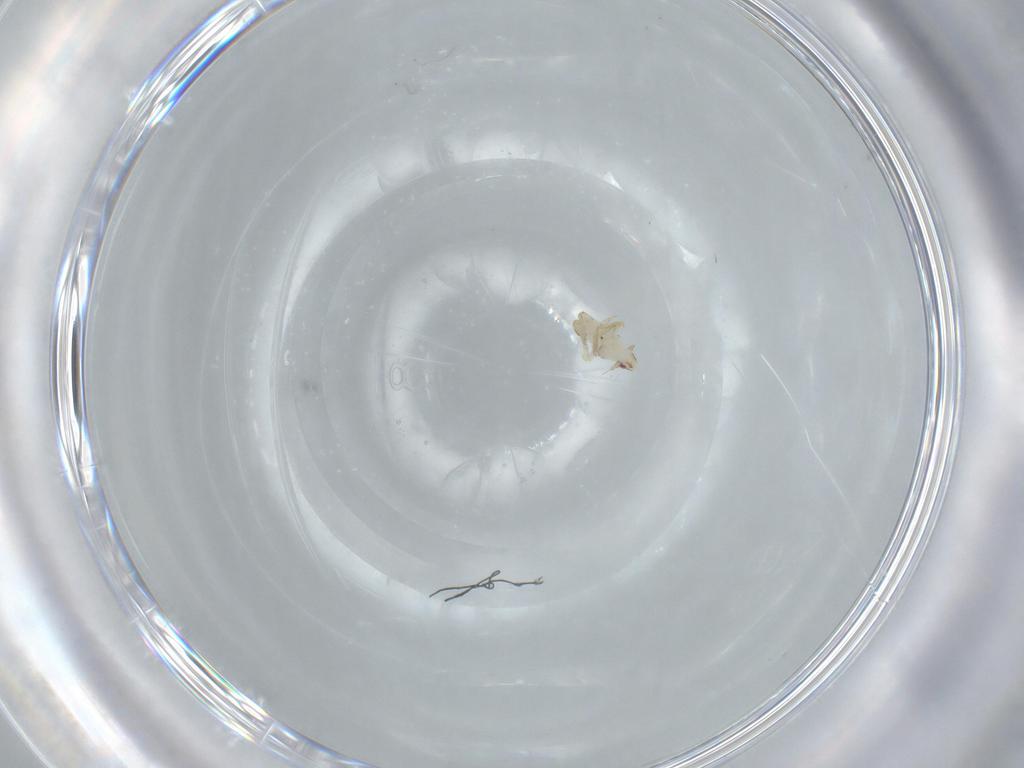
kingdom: Animalia
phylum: Arthropoda
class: Insecta
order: Hemiptera
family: Delphacidae
